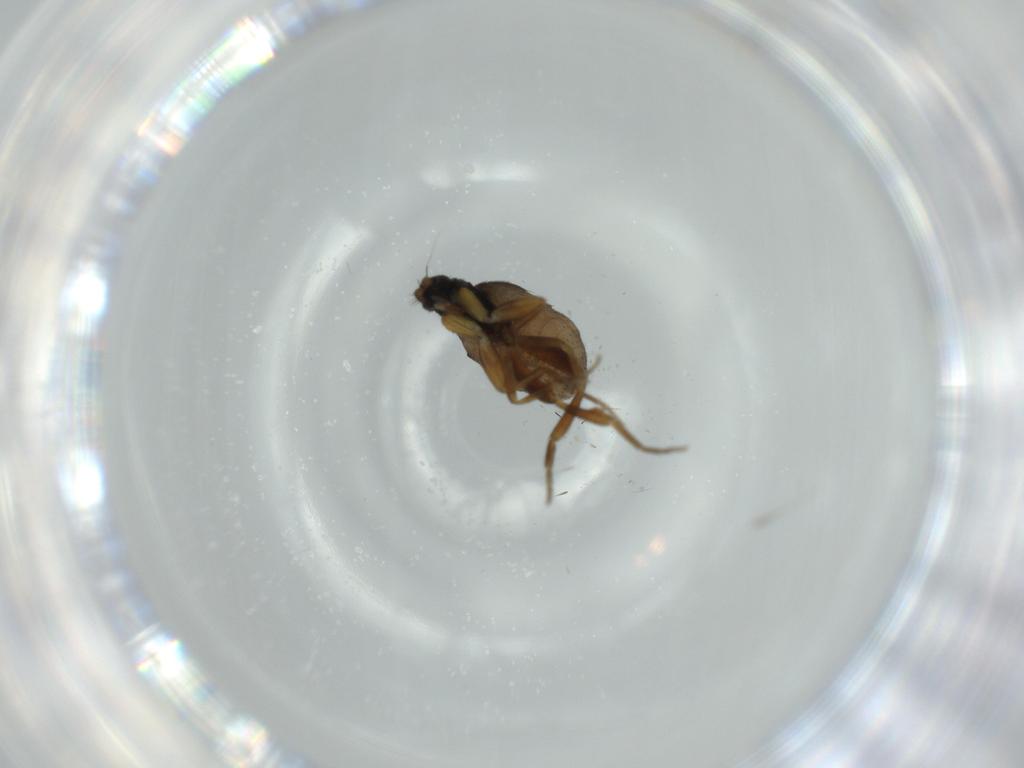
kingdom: Animalia
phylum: Arthropoda
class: Insecta
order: Diptera
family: Phoridae
